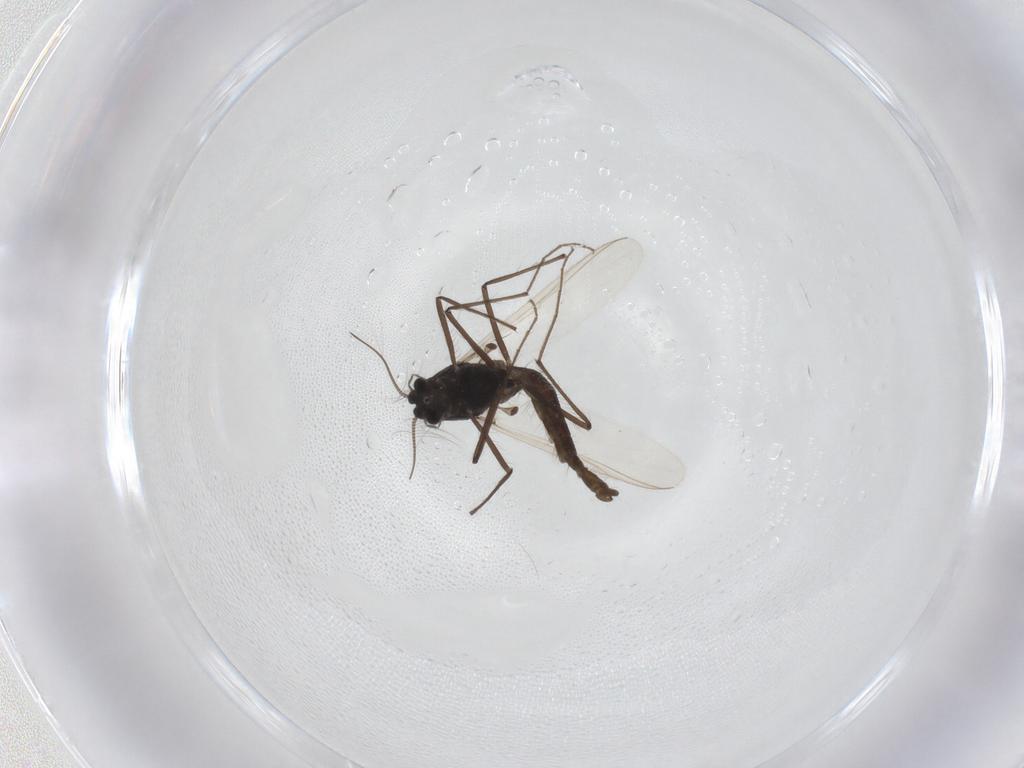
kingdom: Animalia
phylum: Arthropoda
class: Insecta
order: Diptera
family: Chironomidae
